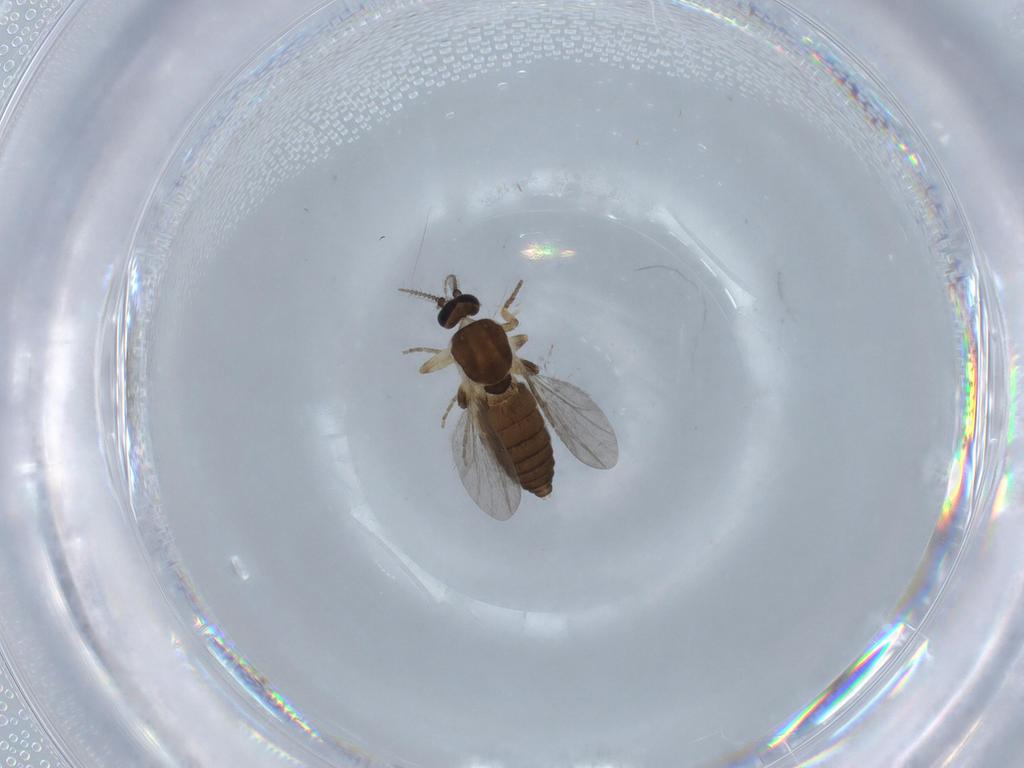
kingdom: Animalia
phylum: Arthropoda
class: Insecta
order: Diptera
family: Ceratopogonidae
